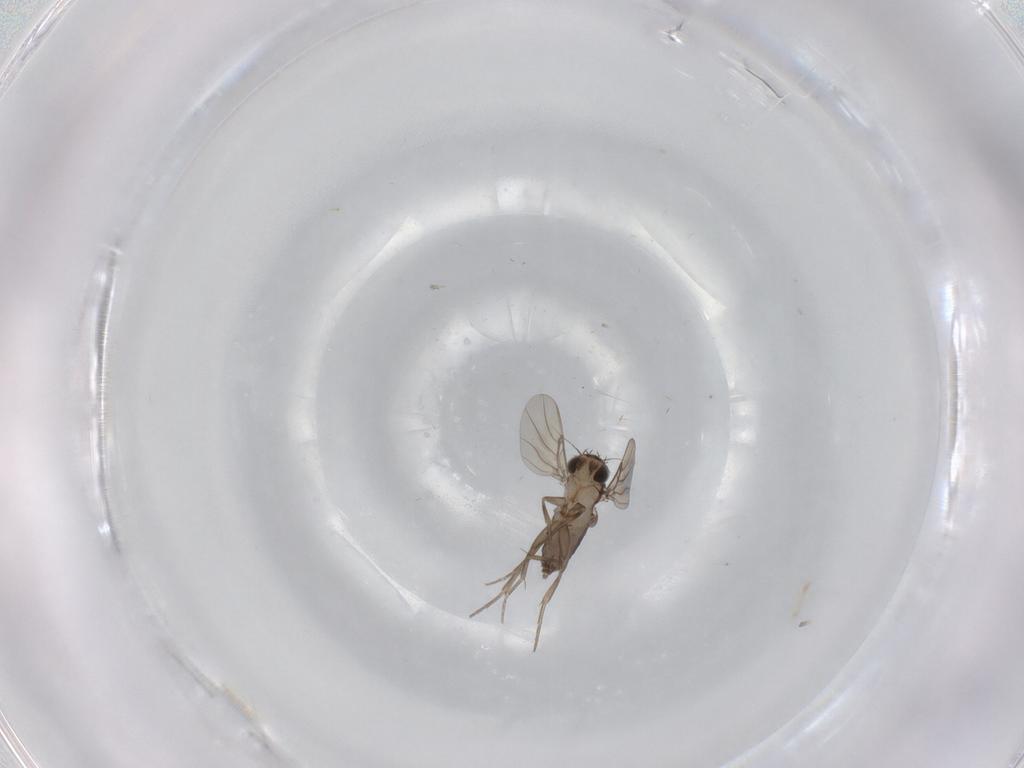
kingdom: Animalia
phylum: Arthropoda
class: Insecta
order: Diptera
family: Phoridae
